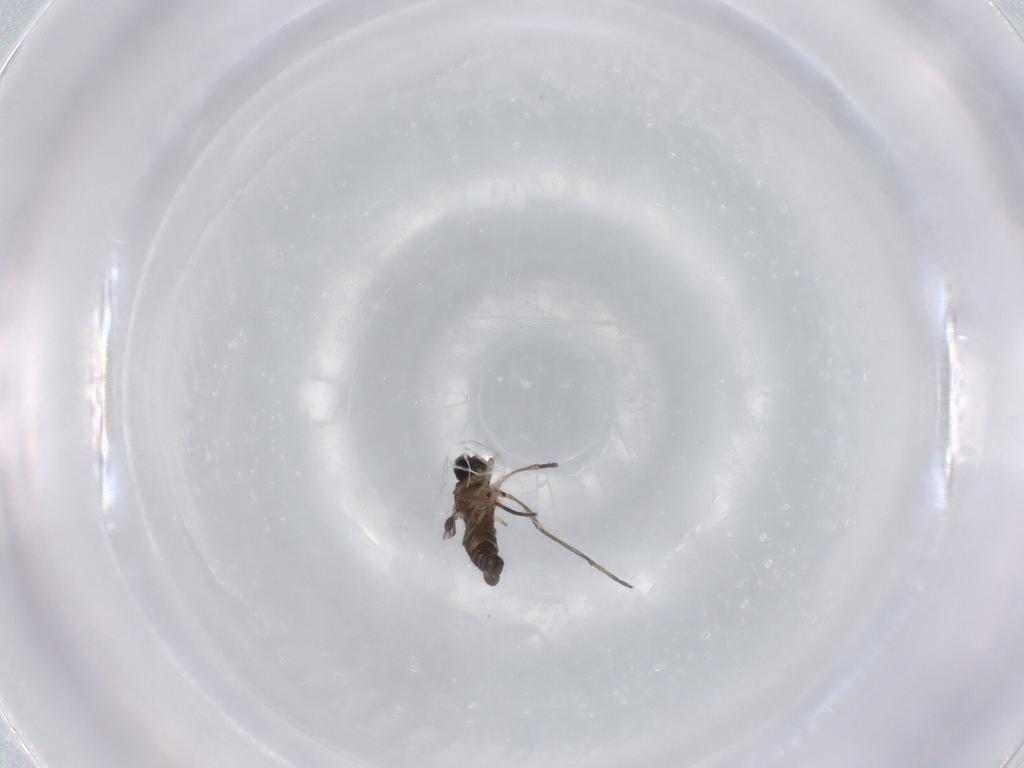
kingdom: Animalia
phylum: Arthropoda
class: Insecta
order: Diptera
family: Sciaridae
